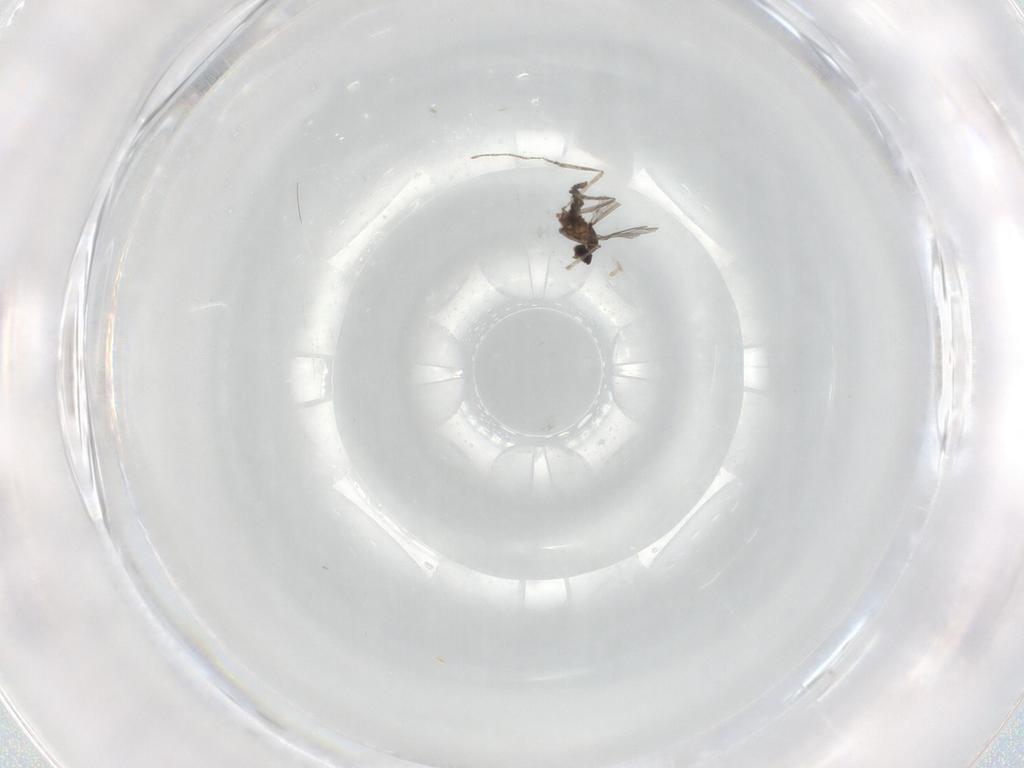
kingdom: Animalia
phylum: Arthropoda
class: Insecta
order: Diptera
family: Cecidomyiidae
